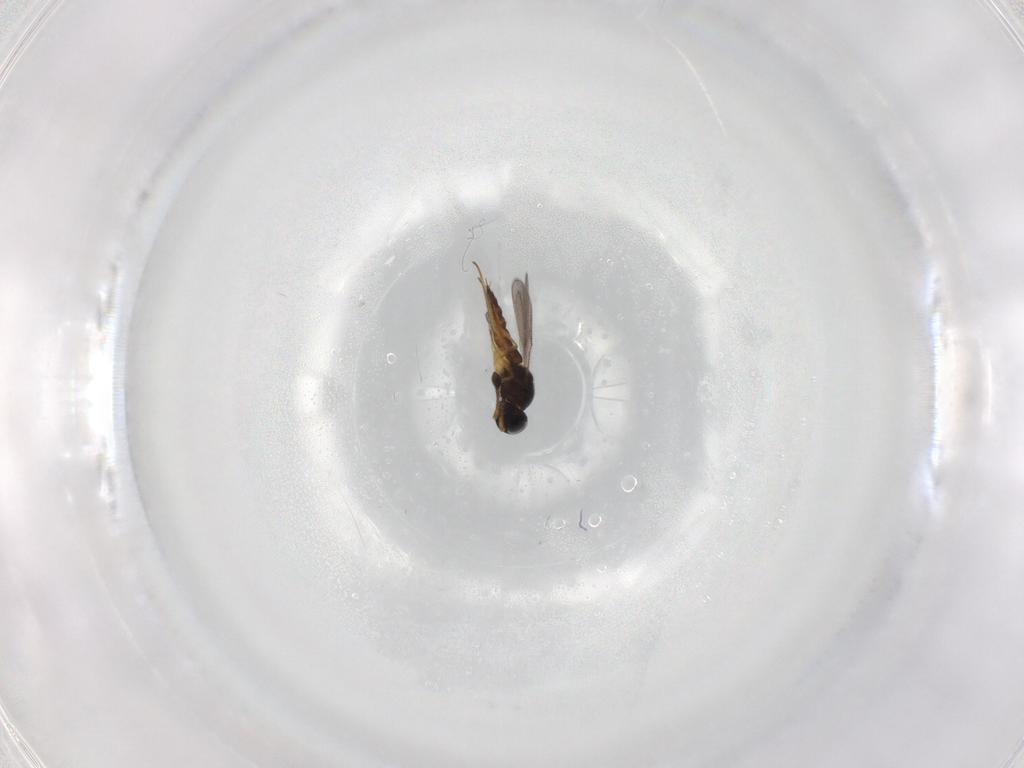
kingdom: Animalia
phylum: Arthropoda
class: Insecta
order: Hymenoptera
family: Scelionidae
